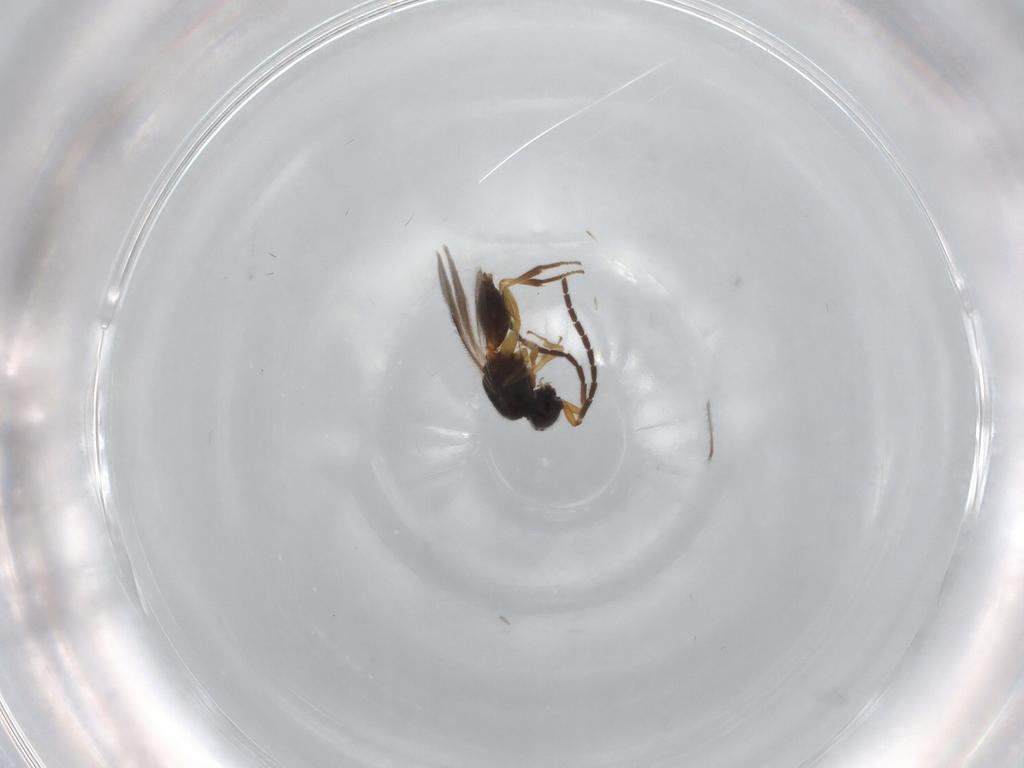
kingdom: Animalia
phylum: Arthropoda
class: Insecta
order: Hymenoptera
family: Megaspilidae
